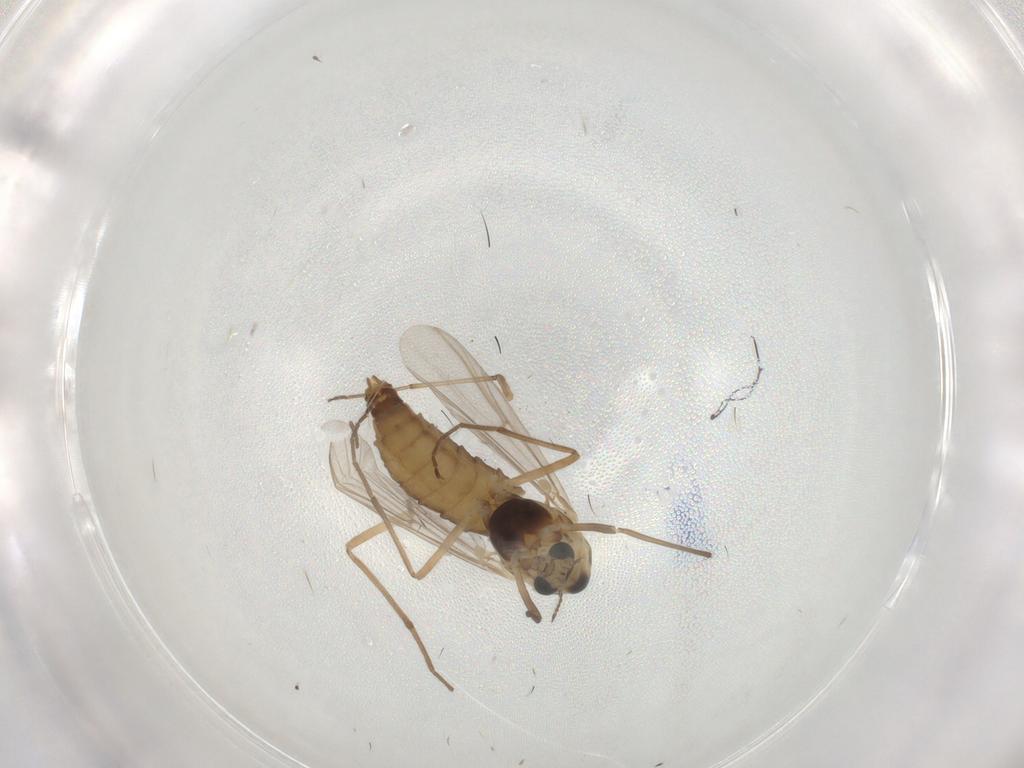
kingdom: Animalia
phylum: Arthropoda
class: Insecta
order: Diptera
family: Chironomidae
